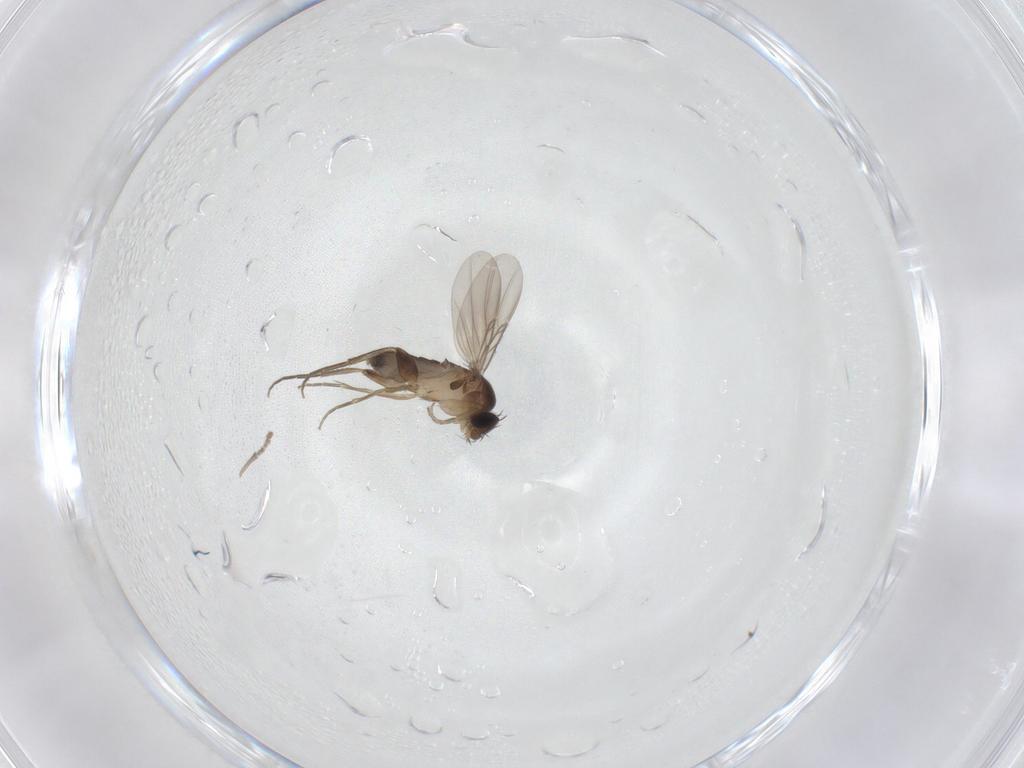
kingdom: Animalia
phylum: Arthropoda
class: Insecta
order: Diptera
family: Phoridae
